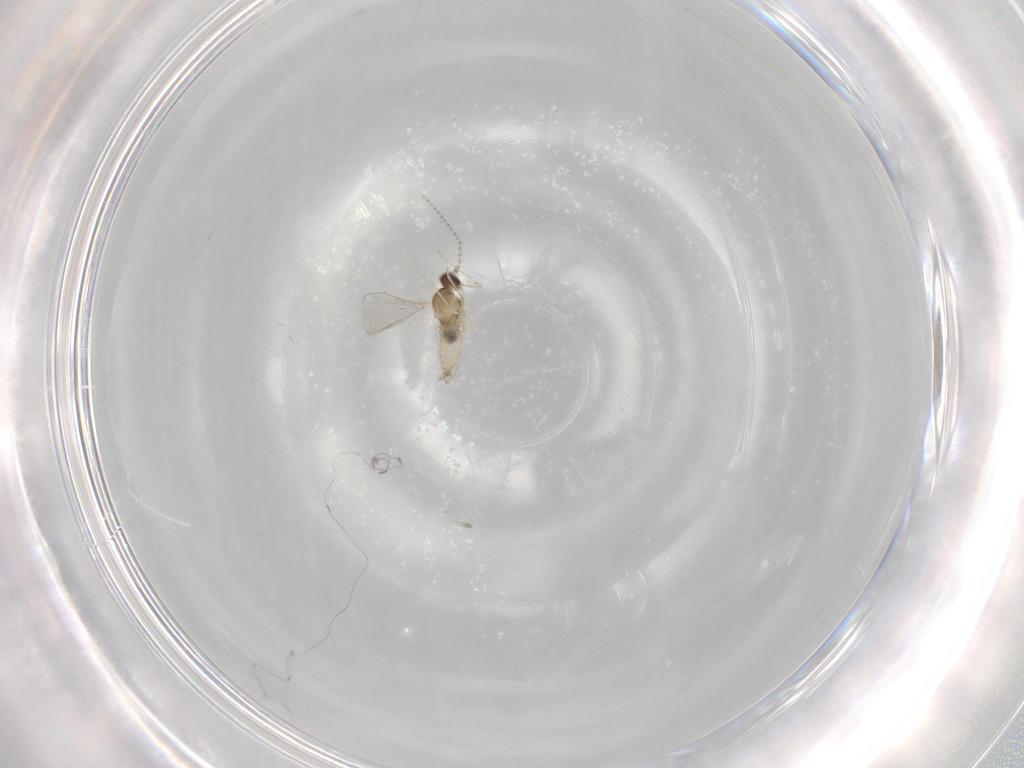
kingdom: Animalia
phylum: Arthropoda
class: Insecta
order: Diptera
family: Cecidomyiidae
